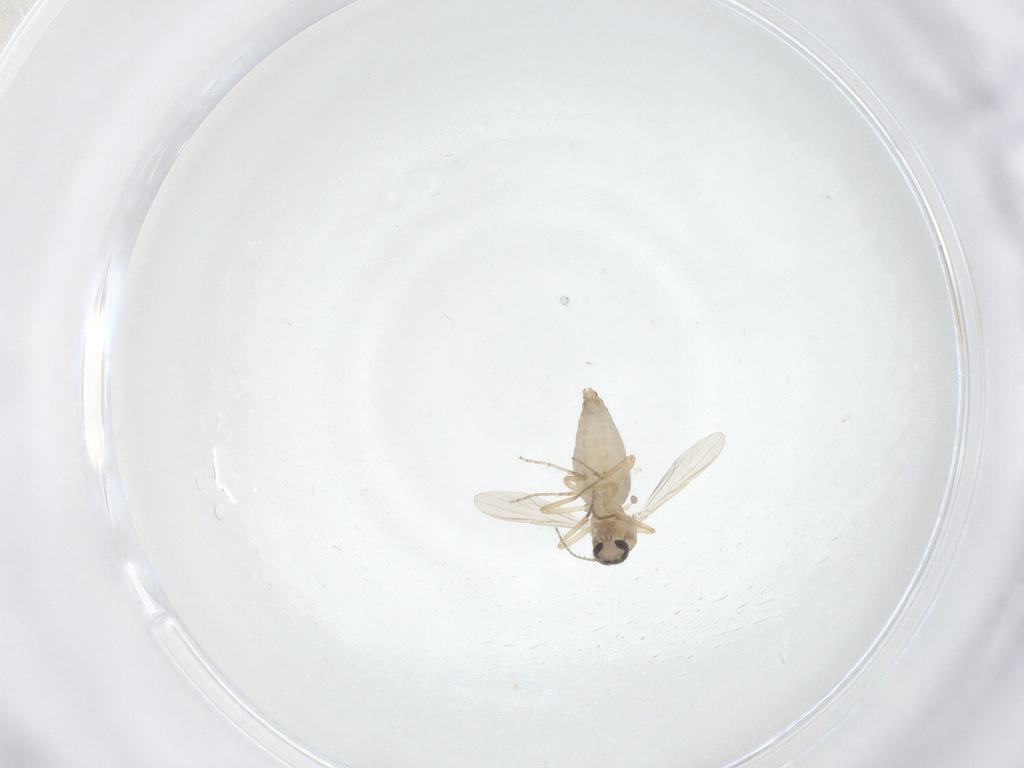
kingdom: Animalia
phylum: Arthropoda
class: Insecta
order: Diptera
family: Ceratopogonidae
